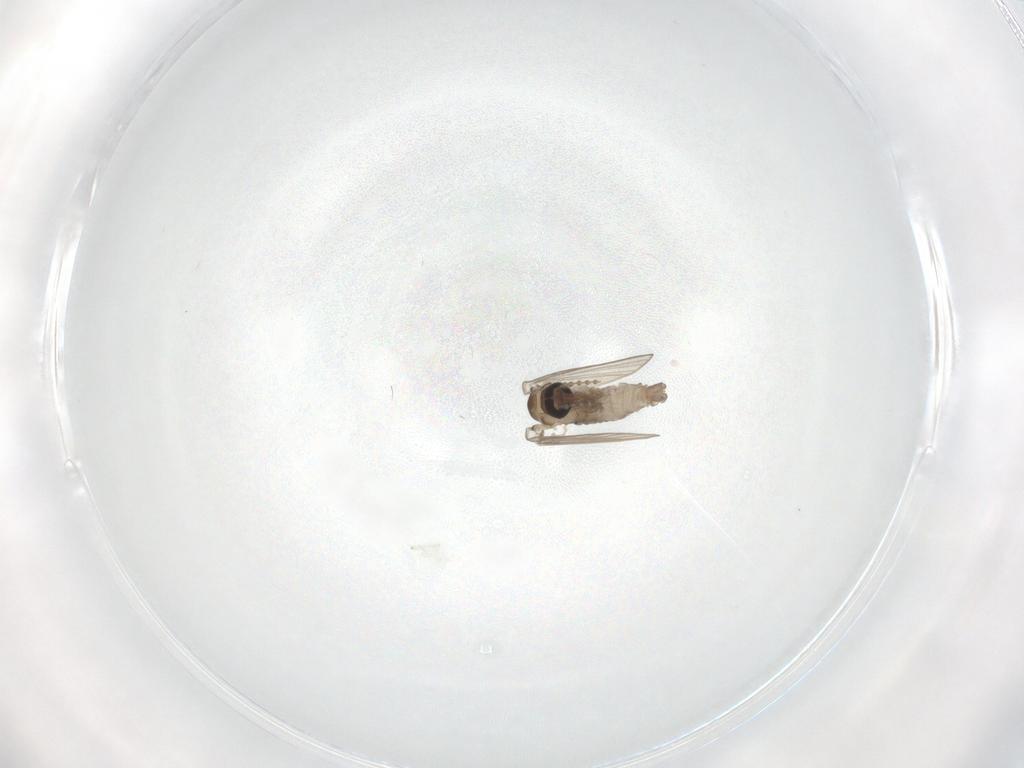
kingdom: Animalia
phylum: Arthropoda
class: Insecta
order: Diptera
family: Psychodidae
